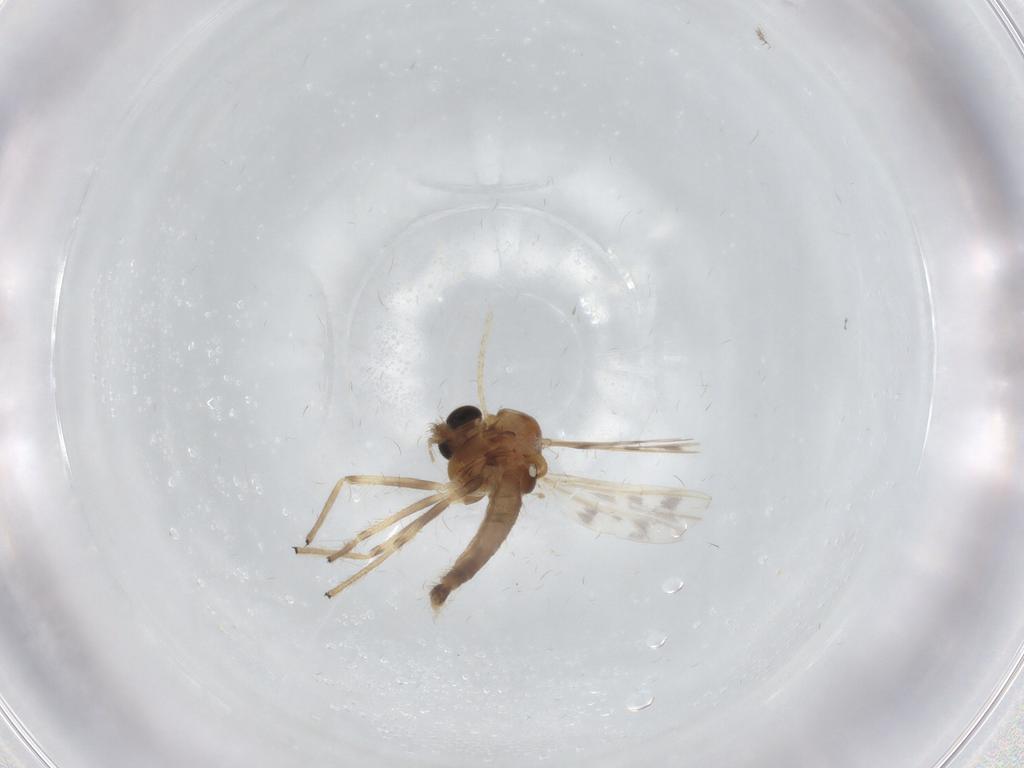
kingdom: Animalia
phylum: Arthropoda
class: Insecta
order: Diptera
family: Chironomidae
